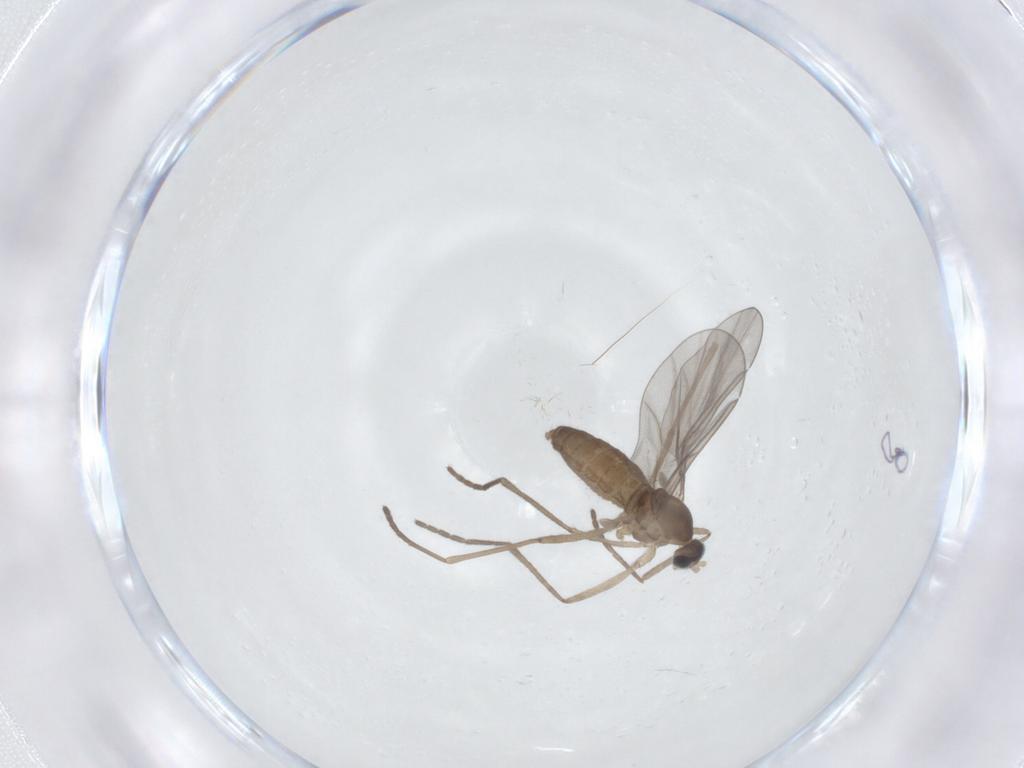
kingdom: Animalia
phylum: Arthropoda
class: Insecta
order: Diptera
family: Cecidomyiidae
